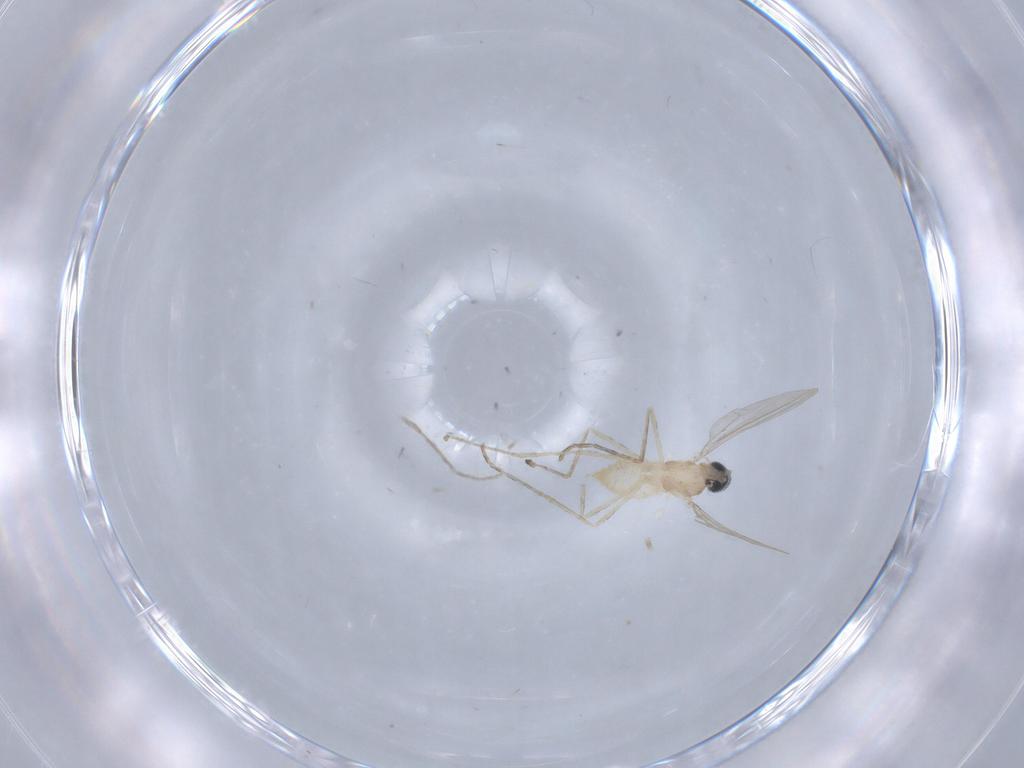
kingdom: Animalia
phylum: Arthropoda
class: Insecta
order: Diptera
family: Cecidomyiidae
